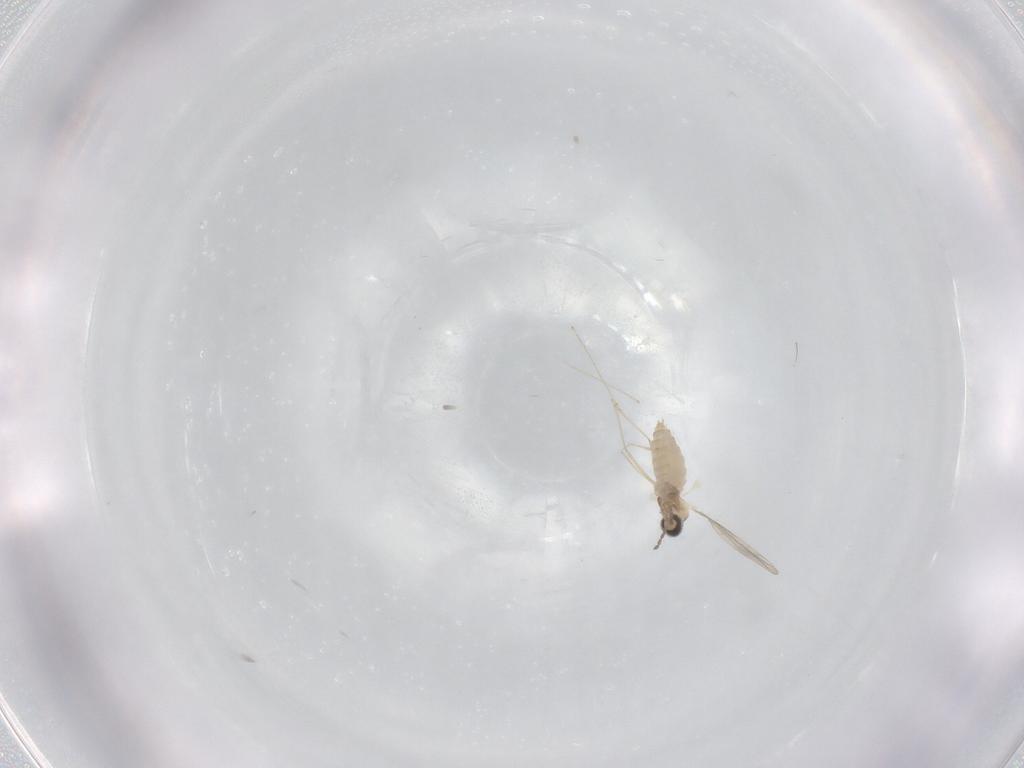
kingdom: Animalia
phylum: Arthropoda
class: Insecta
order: Diptera
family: Cecidomyiidae
